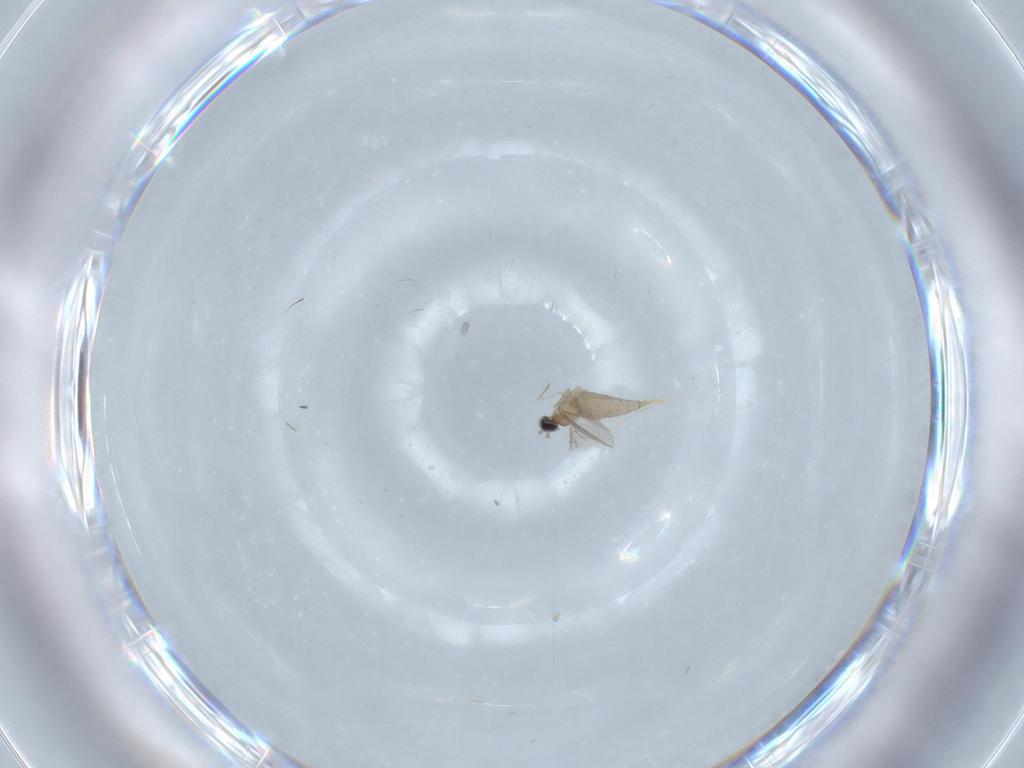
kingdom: Animalia
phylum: Arthropoda
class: Insecta
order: Diptera
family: Cecidomyiidae
